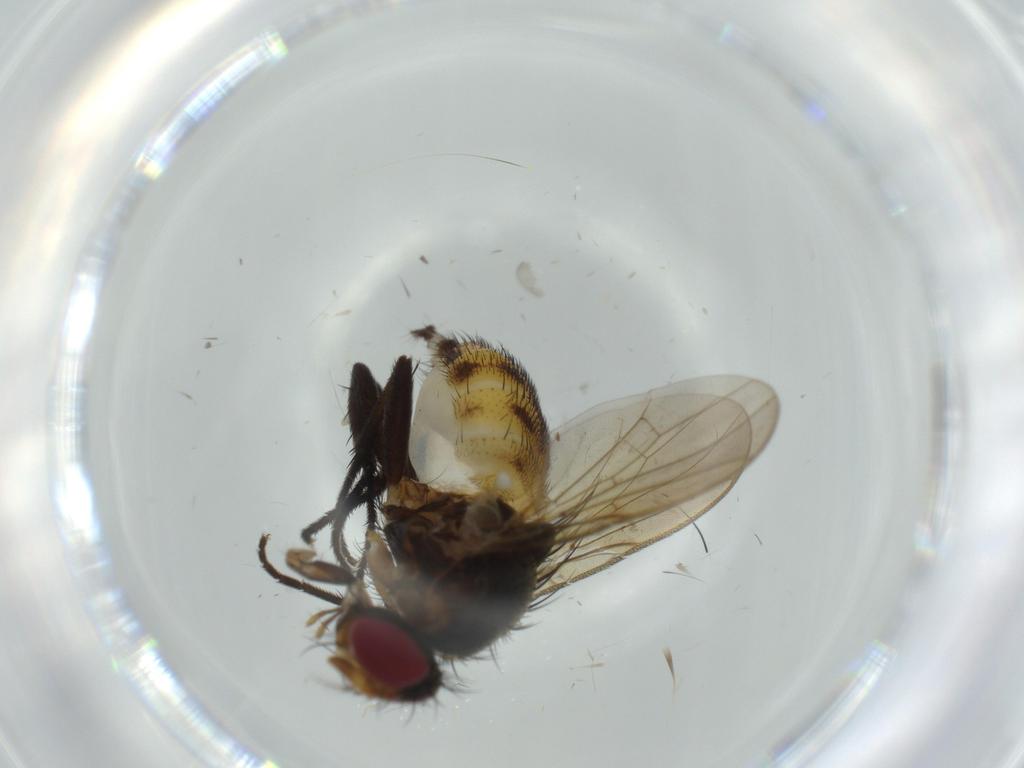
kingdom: Animalia
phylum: Arthropoda
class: Insecta
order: Diptera
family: Anthomyiidae
